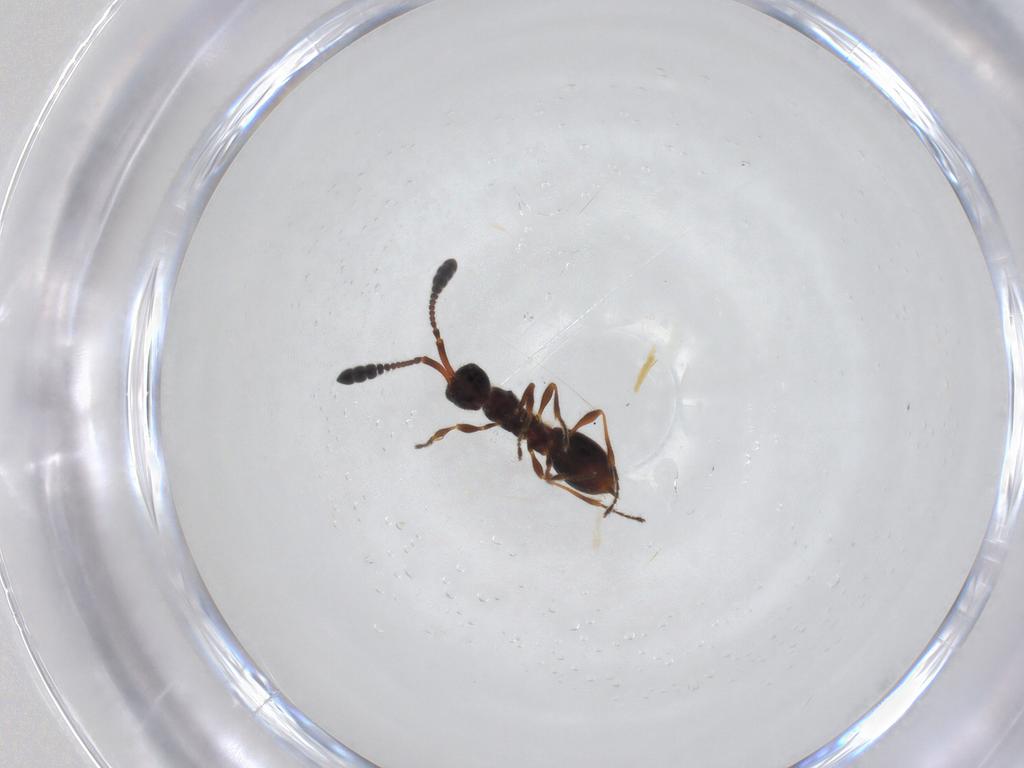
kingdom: Animalia
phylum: Arthropoda
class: Insecta
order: Hymenoptera
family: Diapriidae
